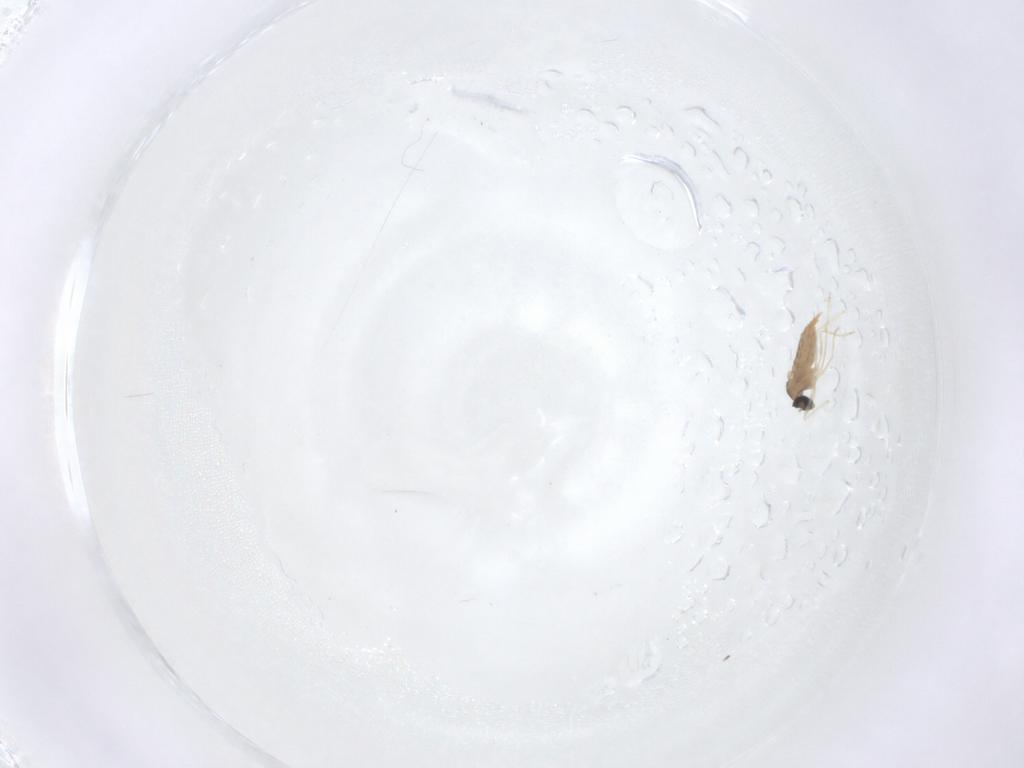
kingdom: Animalia
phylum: Arthropoda
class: Insecta
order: Diptera
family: Cecidomyiidae
